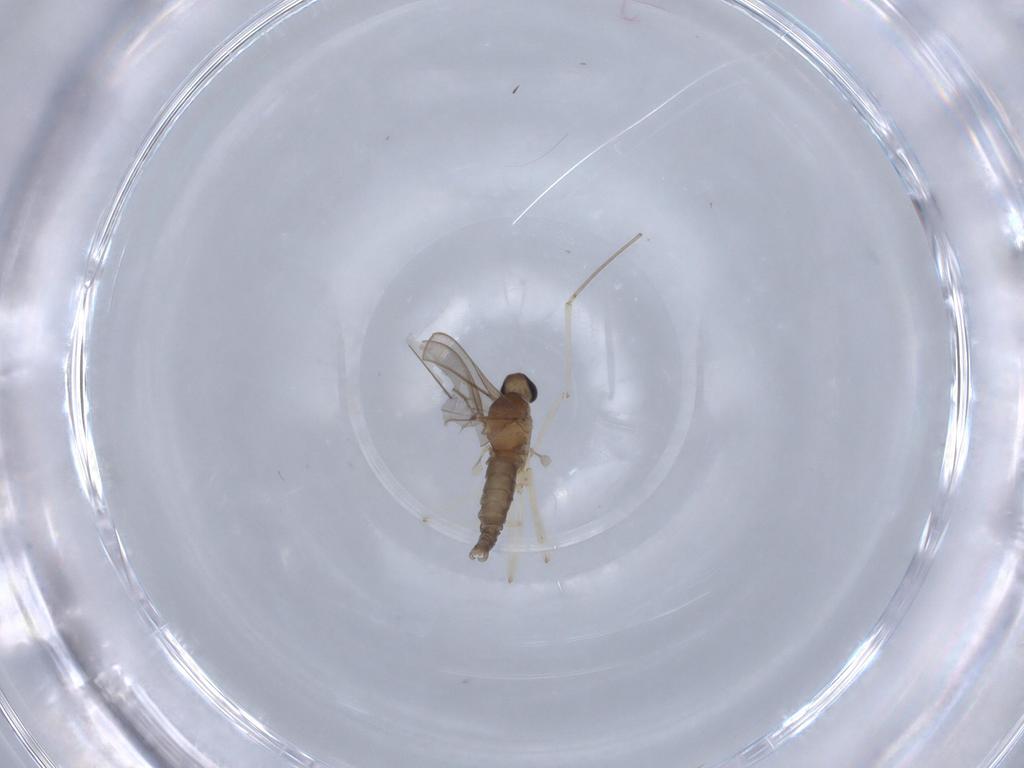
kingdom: Animalia
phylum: Arthropoda
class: Insecta
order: Diptera
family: Cecidomyiidae
